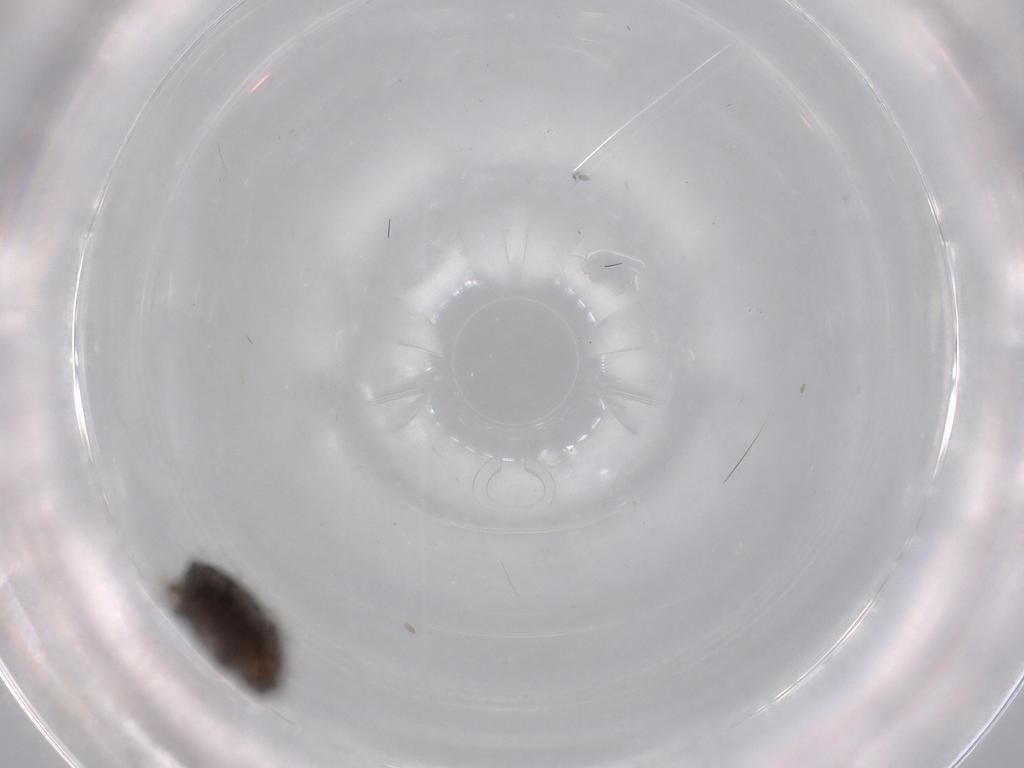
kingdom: Animalia
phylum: Arthropoda
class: Insecta
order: Diptera
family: Phoridae
